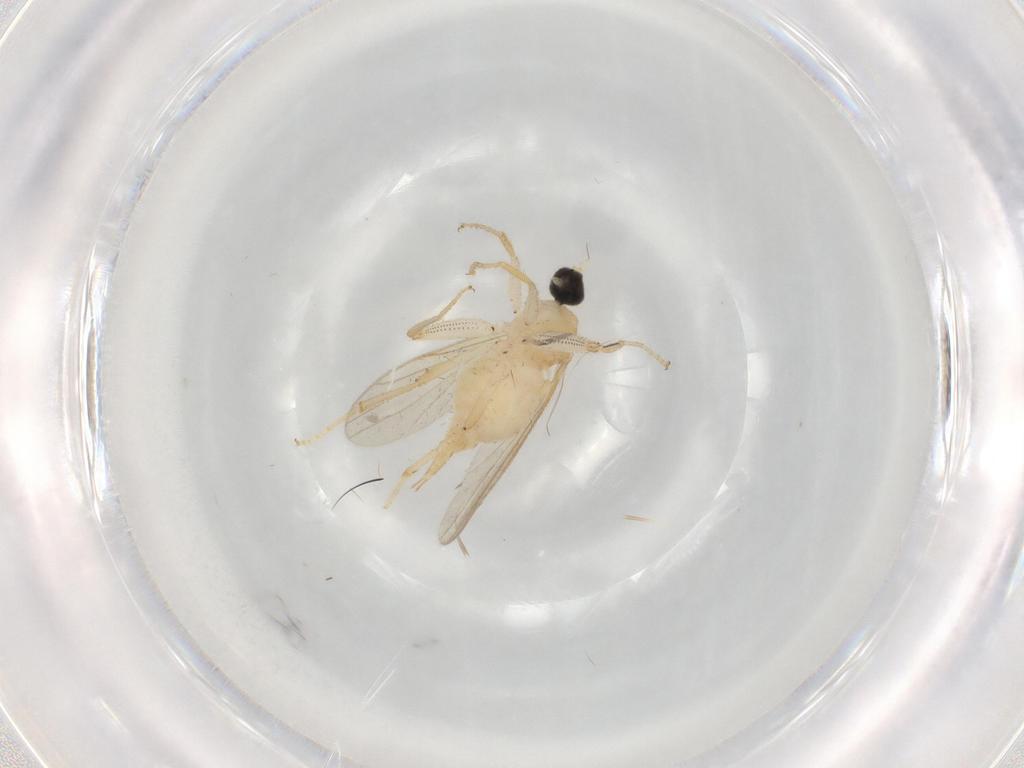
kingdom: Animalia
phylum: Arthropoda
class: Insecta
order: Diptera
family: Hybotidae
